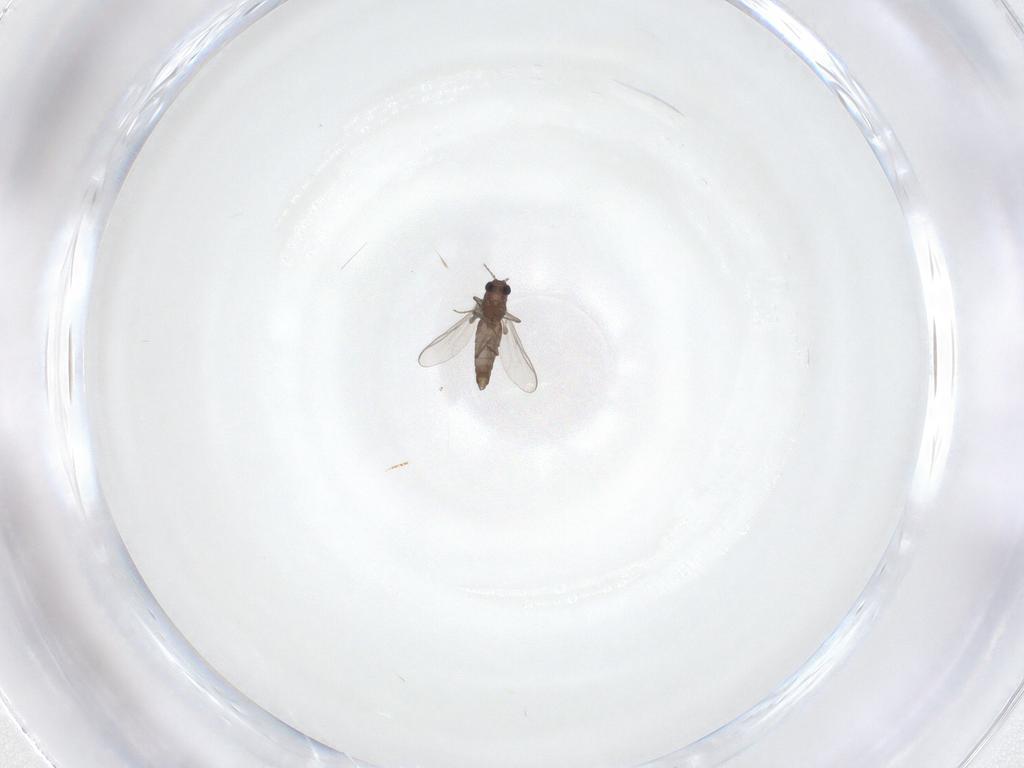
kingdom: Animalia
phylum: Arthropoda
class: Insecta
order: Diptera
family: Chironomidae
